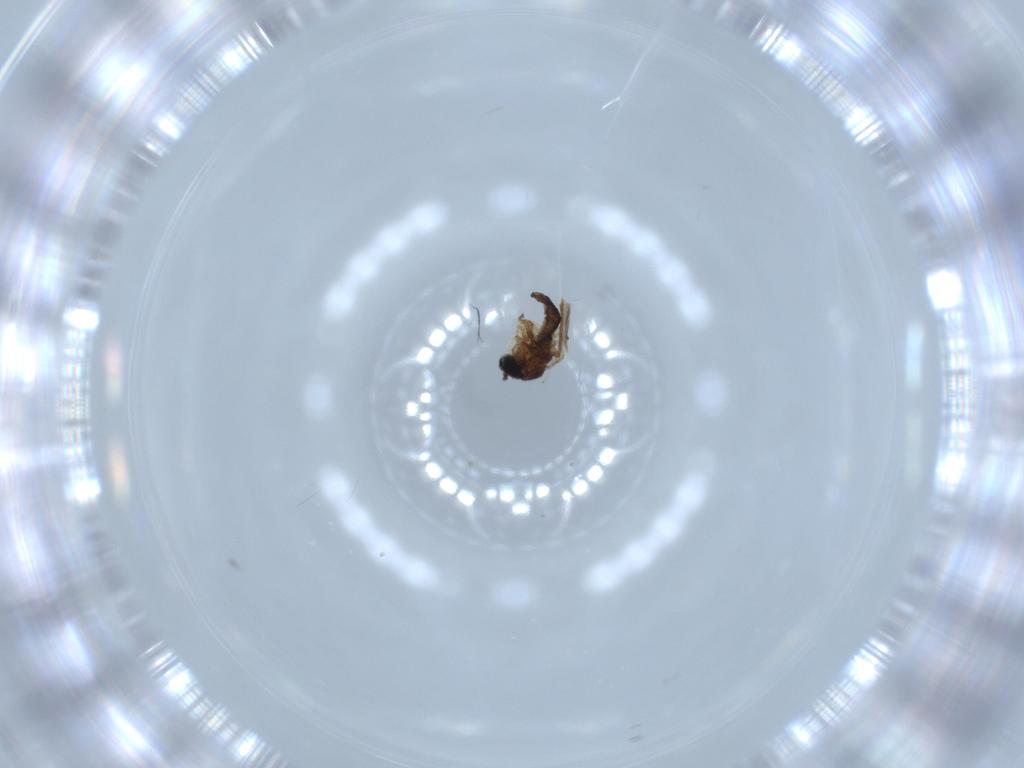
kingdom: Animalia
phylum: Arthropoda
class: Insecta
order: Diptera
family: Cecidomyiidae
